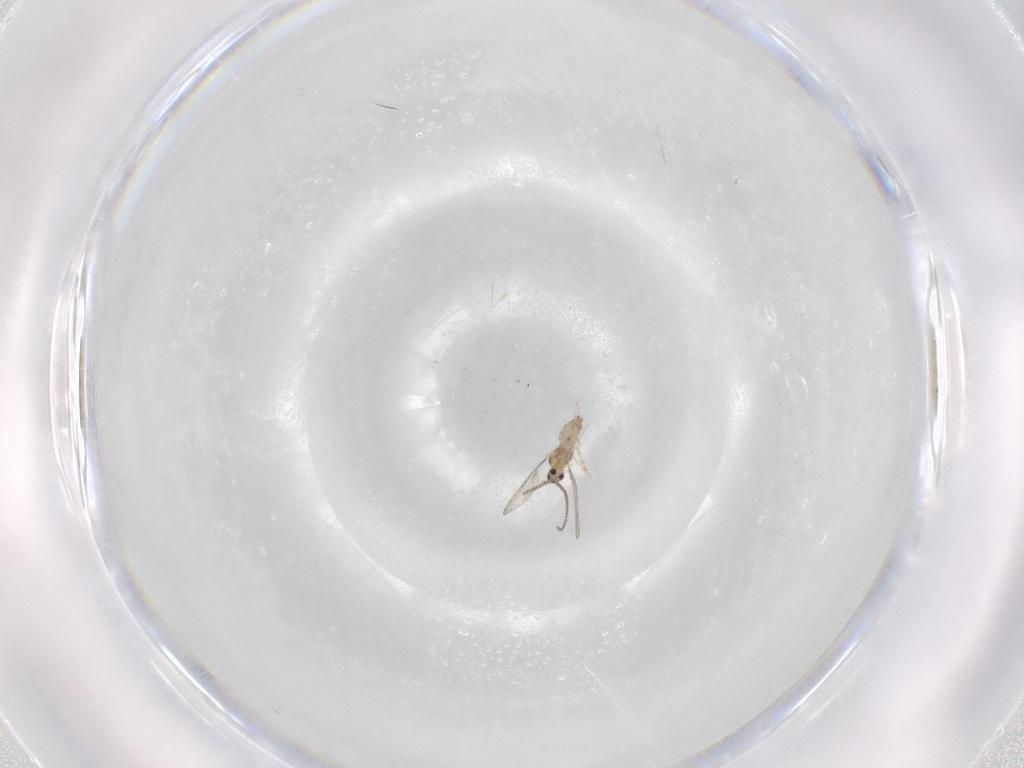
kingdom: Animalia
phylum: Arthropoda
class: Insecta
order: Diptera
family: Cecidomyiidae
